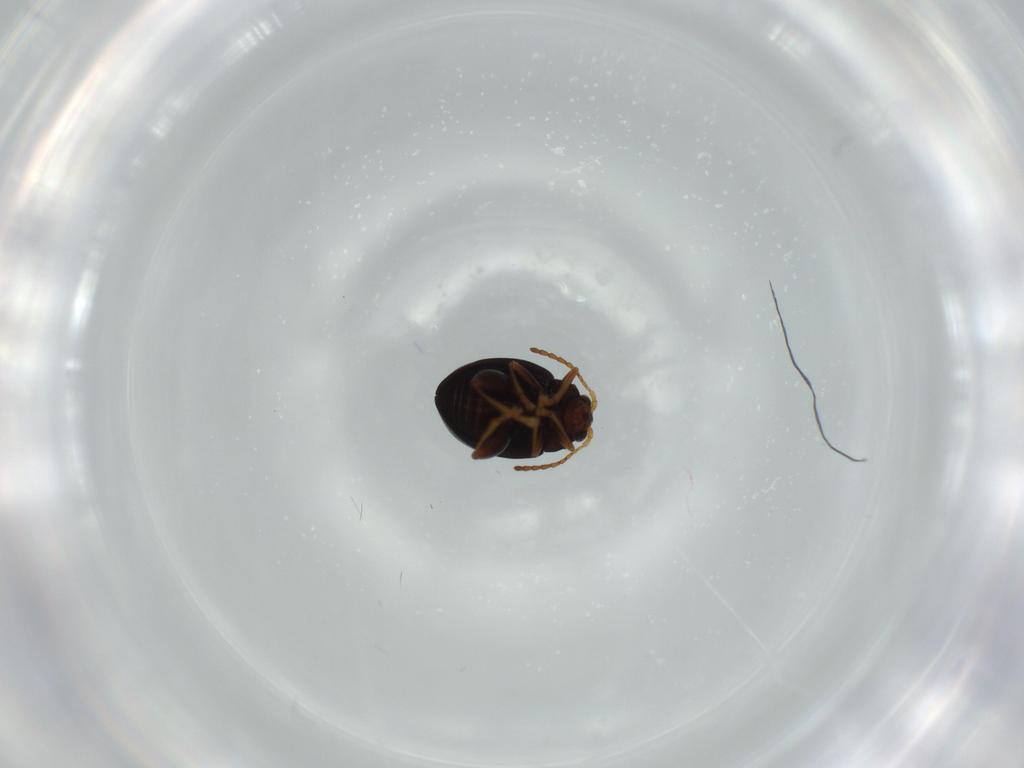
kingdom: Animalia
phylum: Arthropoda
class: Insecta
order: Coleoptera
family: Chrysomelidae
